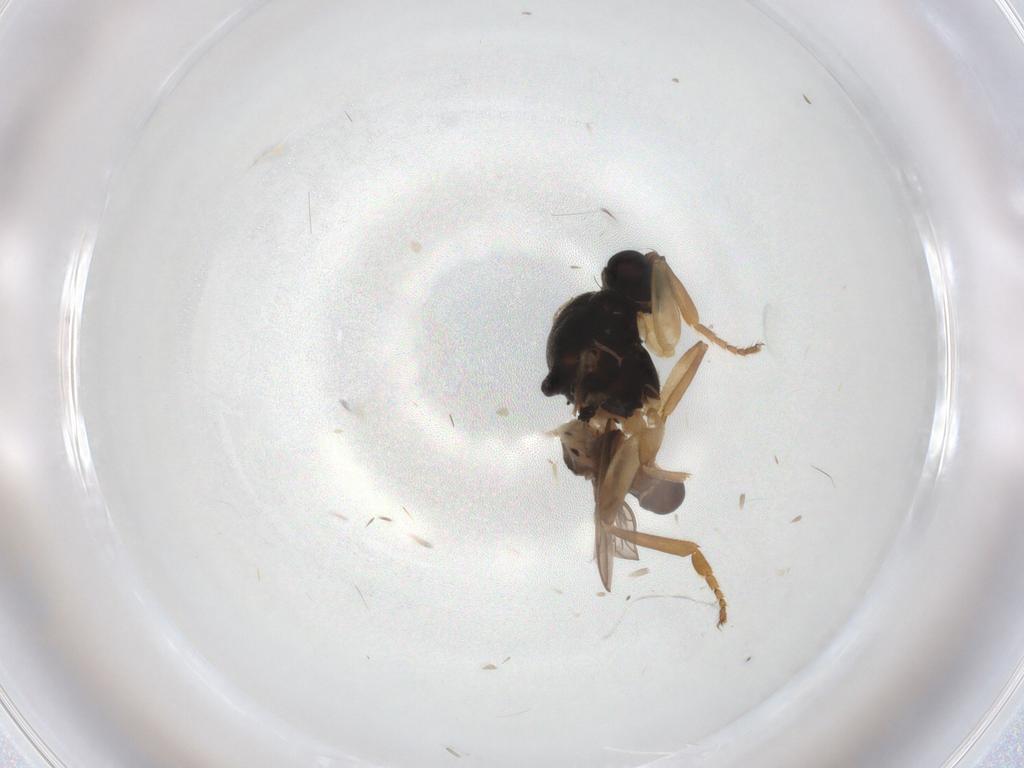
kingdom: Animalia
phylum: Arthropoda
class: Insecta
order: Diptera
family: Sphaeroceridae
